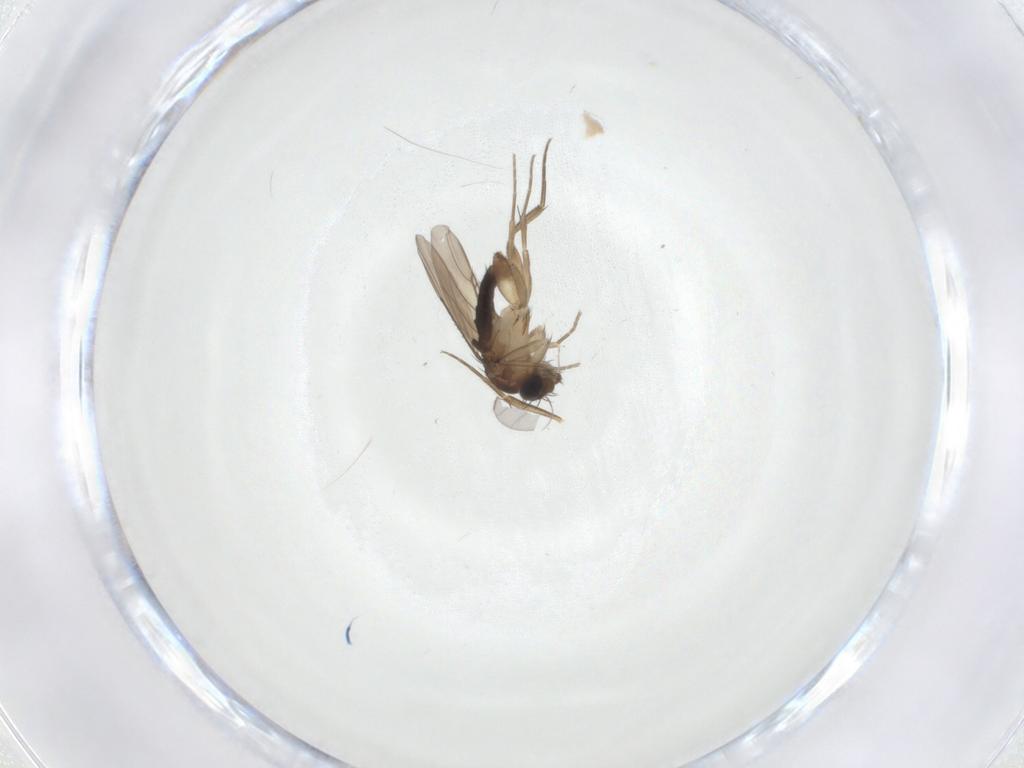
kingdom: Animalia
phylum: Arthropoda
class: Insecta
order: Diptera
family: Phoridae
